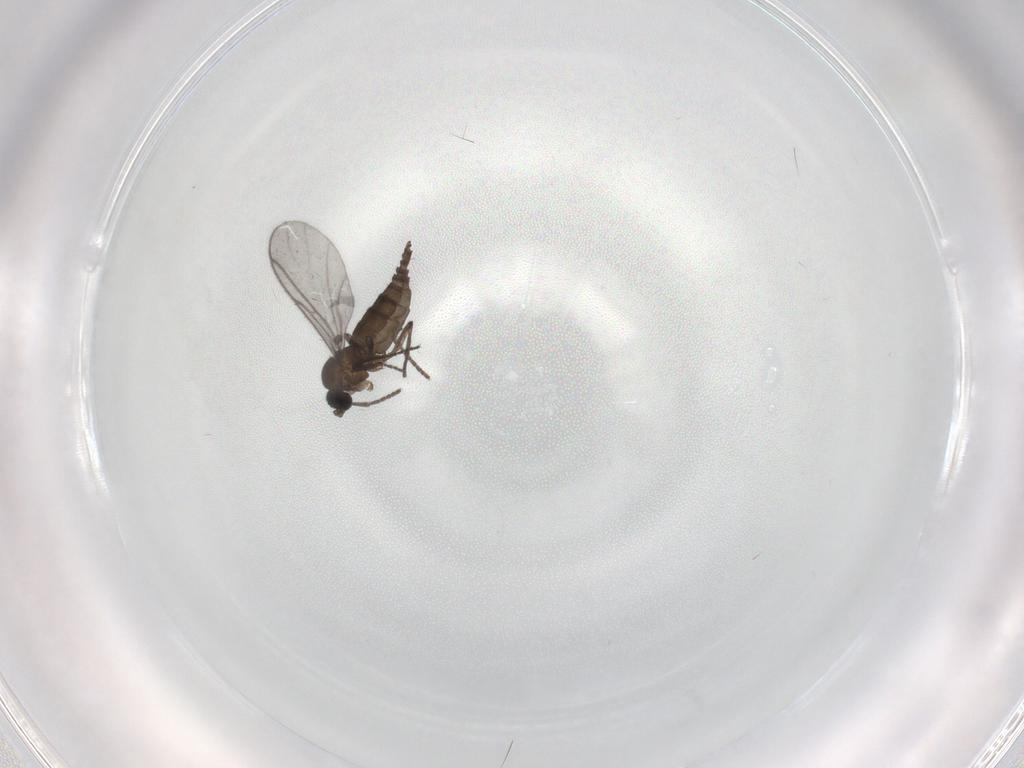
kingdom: Animalia
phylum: Arthropoda
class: Insecta
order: Diptera
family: Sciaridae
